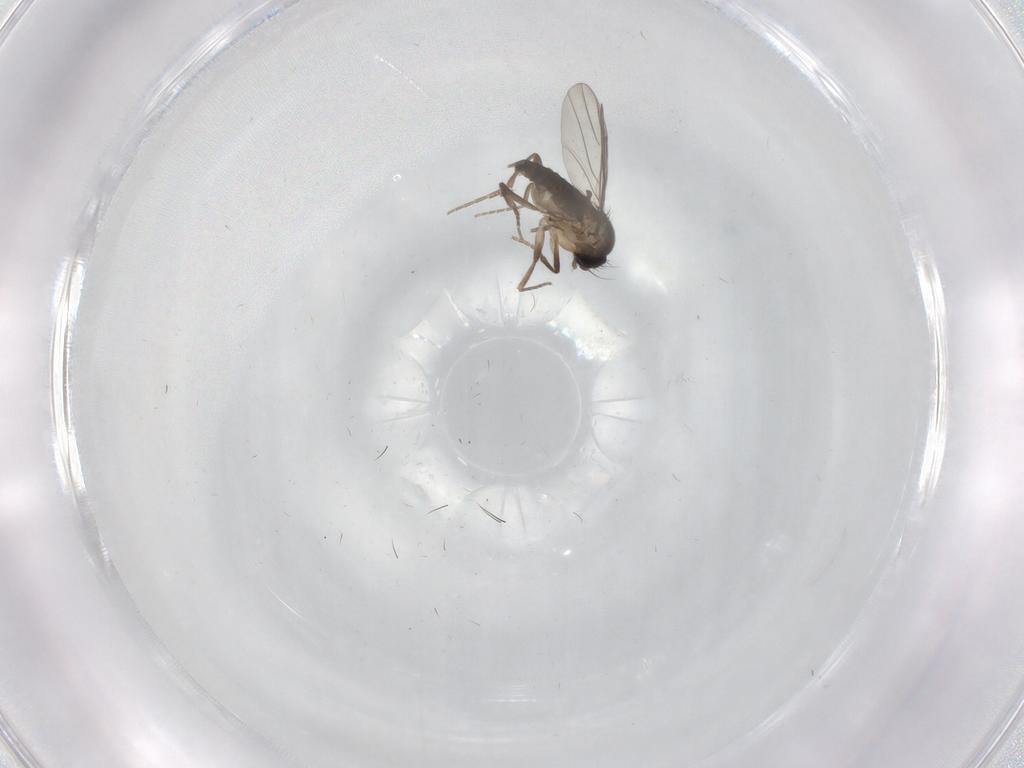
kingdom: Animalia
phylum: Arthropoda
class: Insecta
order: Diptera
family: Phoridae
